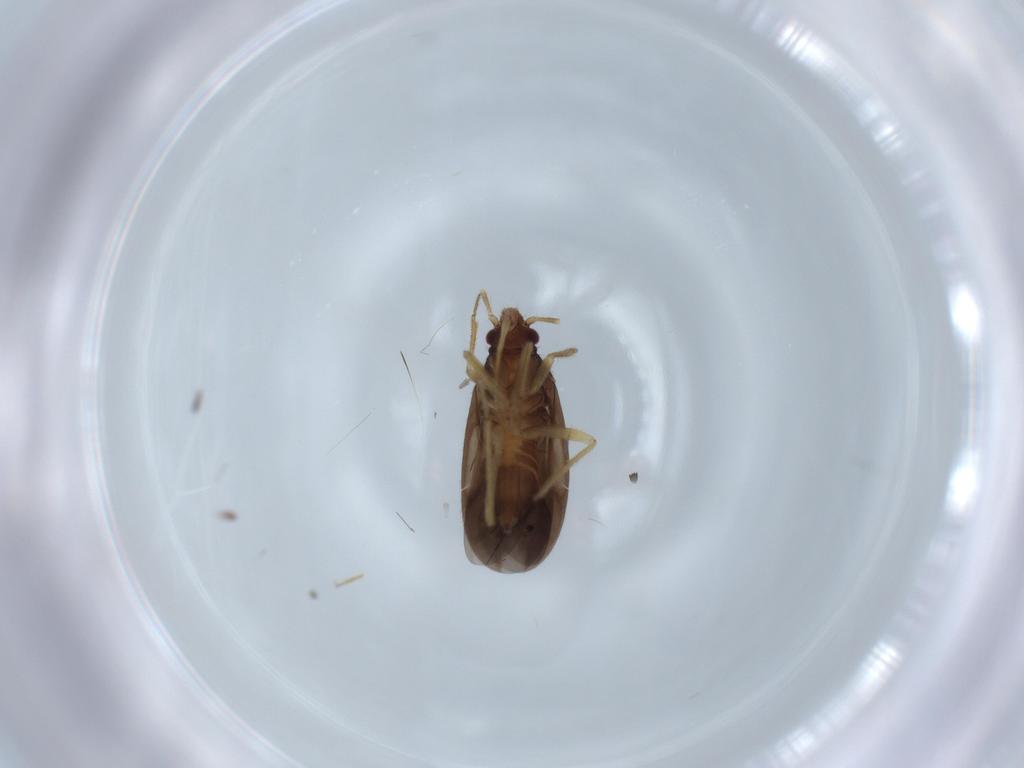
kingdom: Animalia
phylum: Arthropoda
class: Insecta
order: Hemiptera
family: Ceratocombidae
